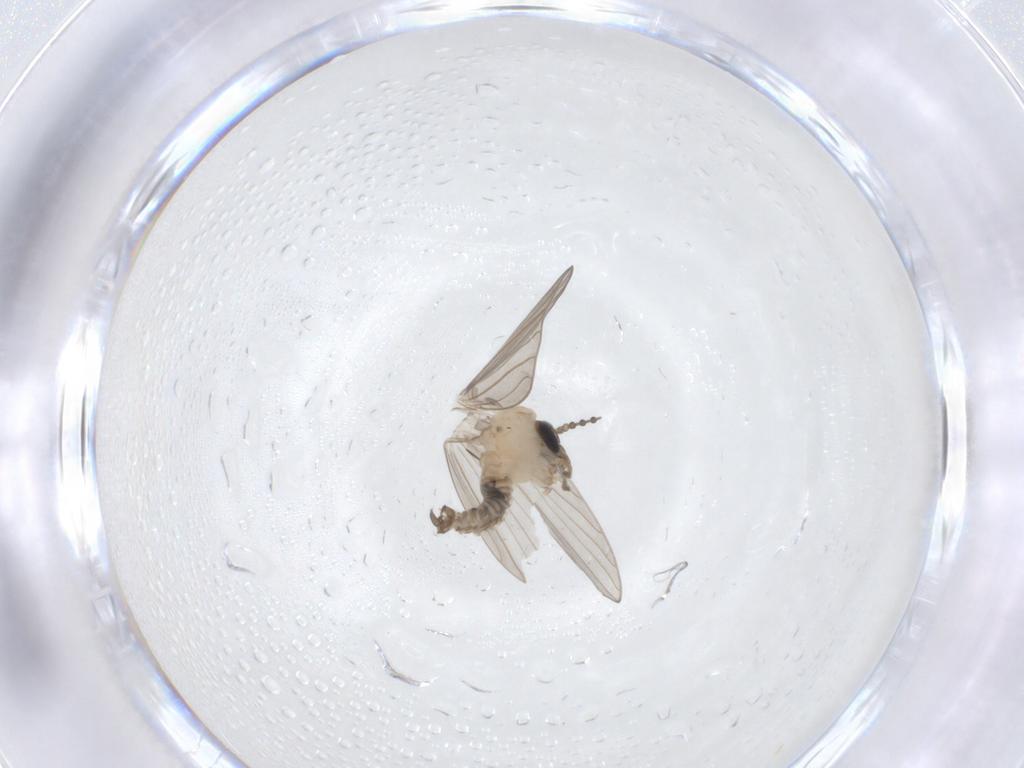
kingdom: Animalia
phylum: Arthropoda
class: Insecta
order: Diptera
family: Psychodidae
